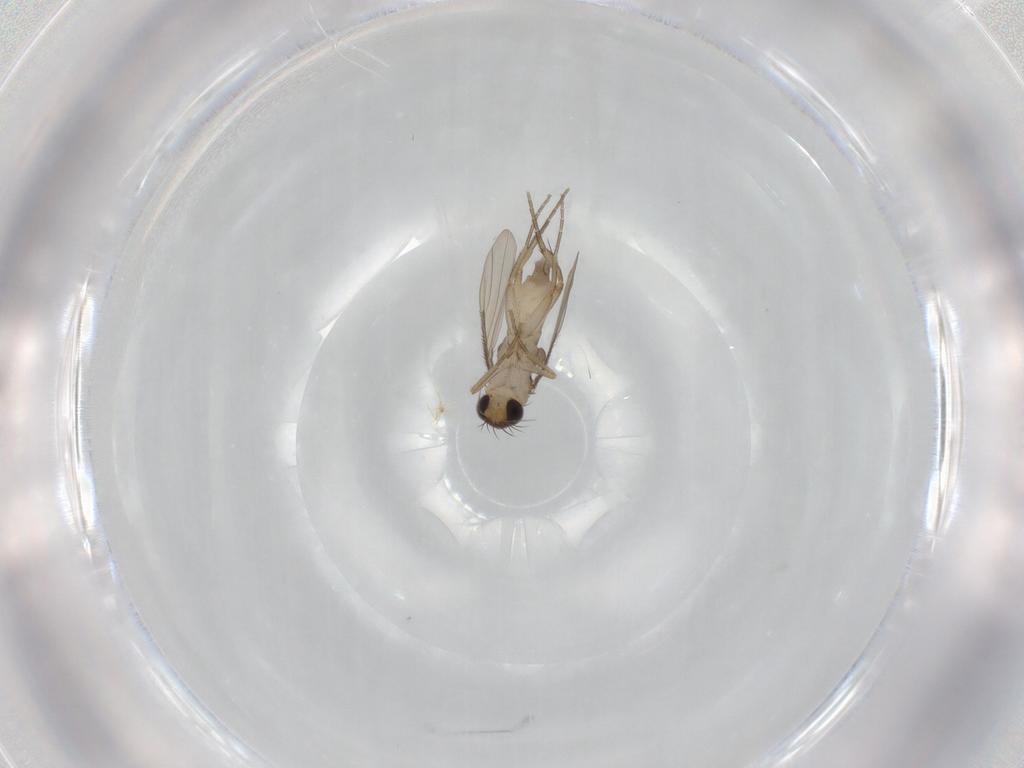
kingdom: Animalia
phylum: Arthropoda
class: Insecta
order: Diptera
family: Phoridae
